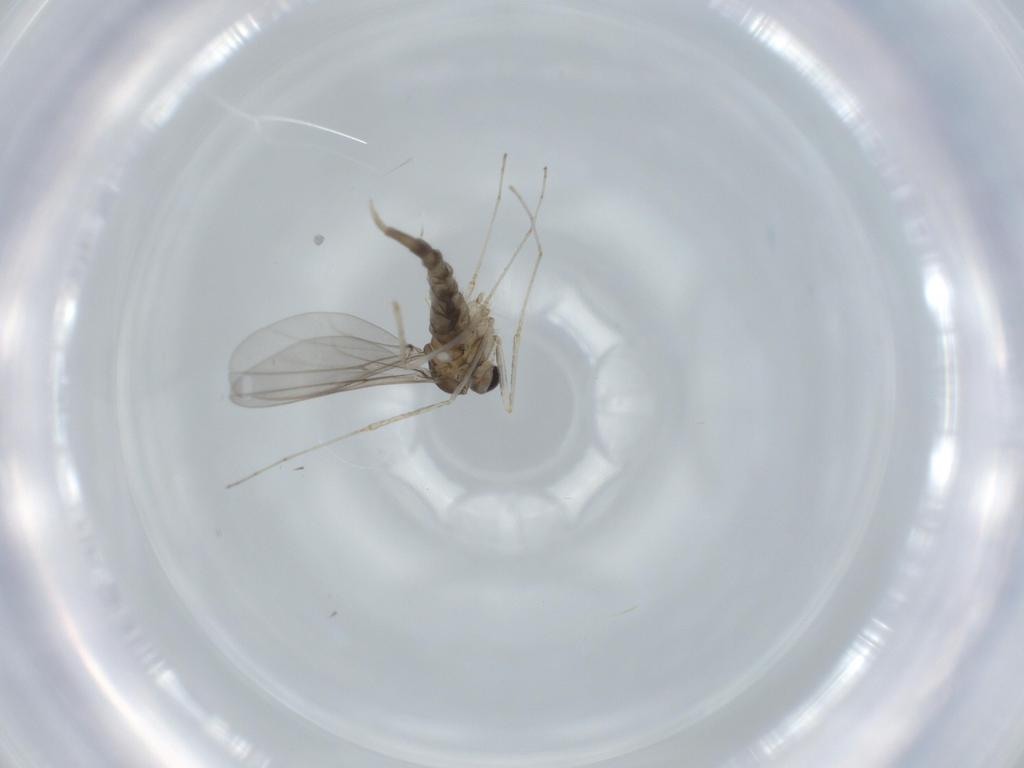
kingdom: Animalia
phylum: Arthropoda
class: Insecta
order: Diptera
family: Cecidomyiidae
